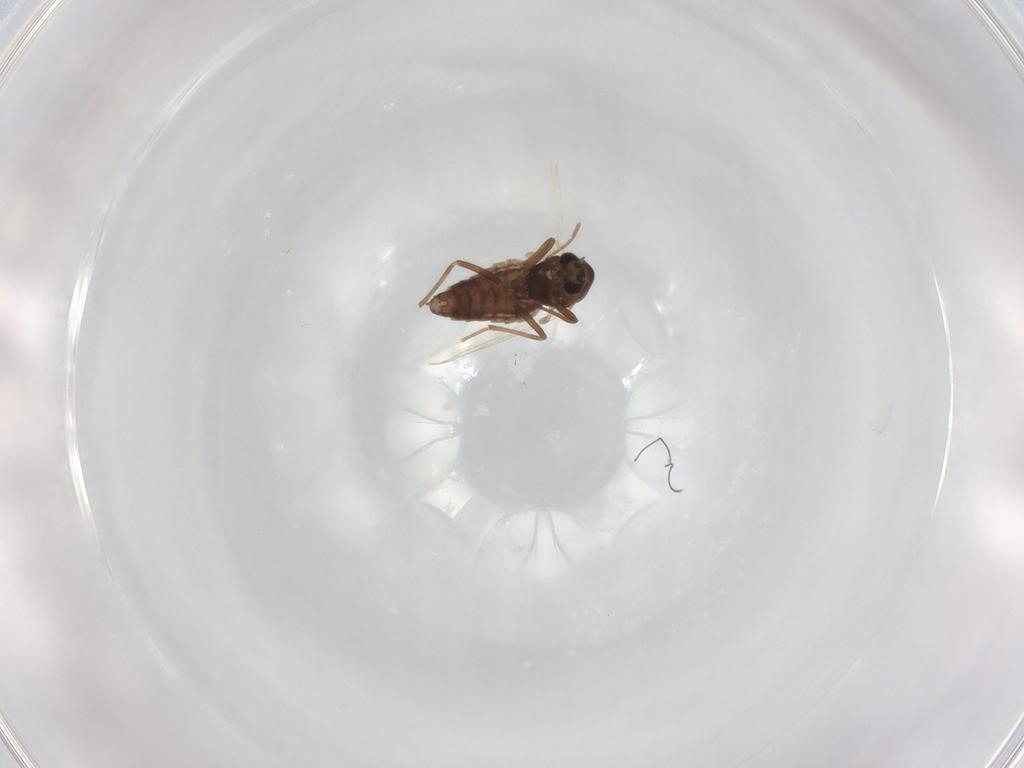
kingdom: Animalia
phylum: Arthropoda
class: Insecta
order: Diptera
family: Chironomidae
